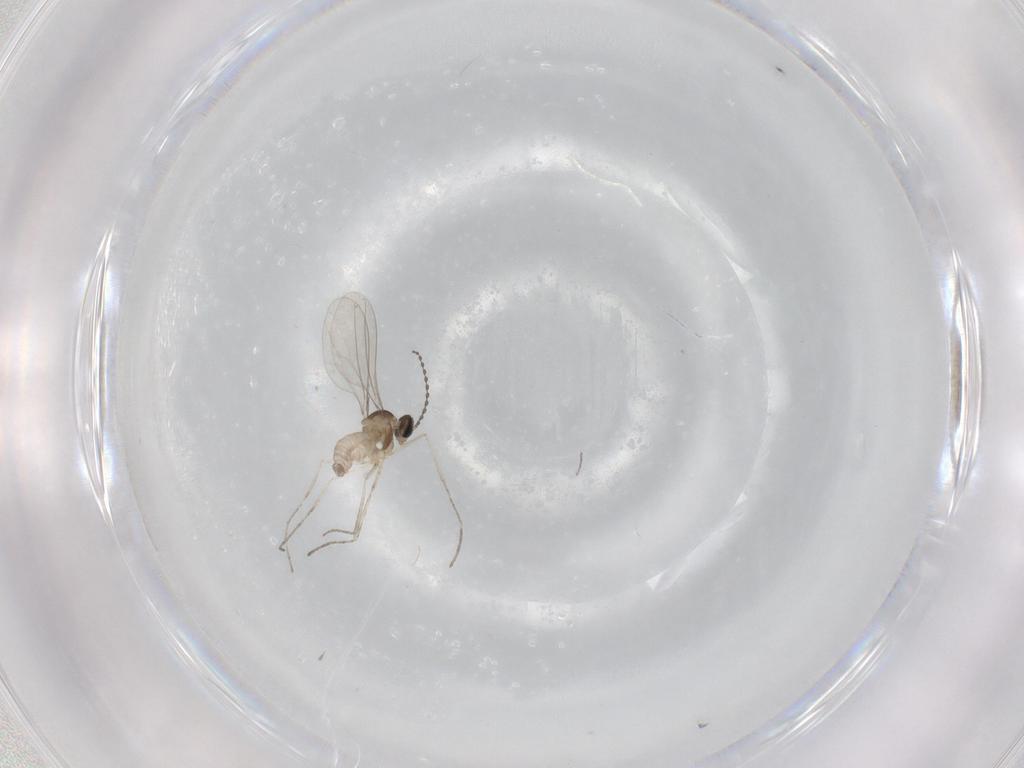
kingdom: Animalia
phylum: Arthropoda
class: Insecta
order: Diptera
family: Cecidomyiidae
